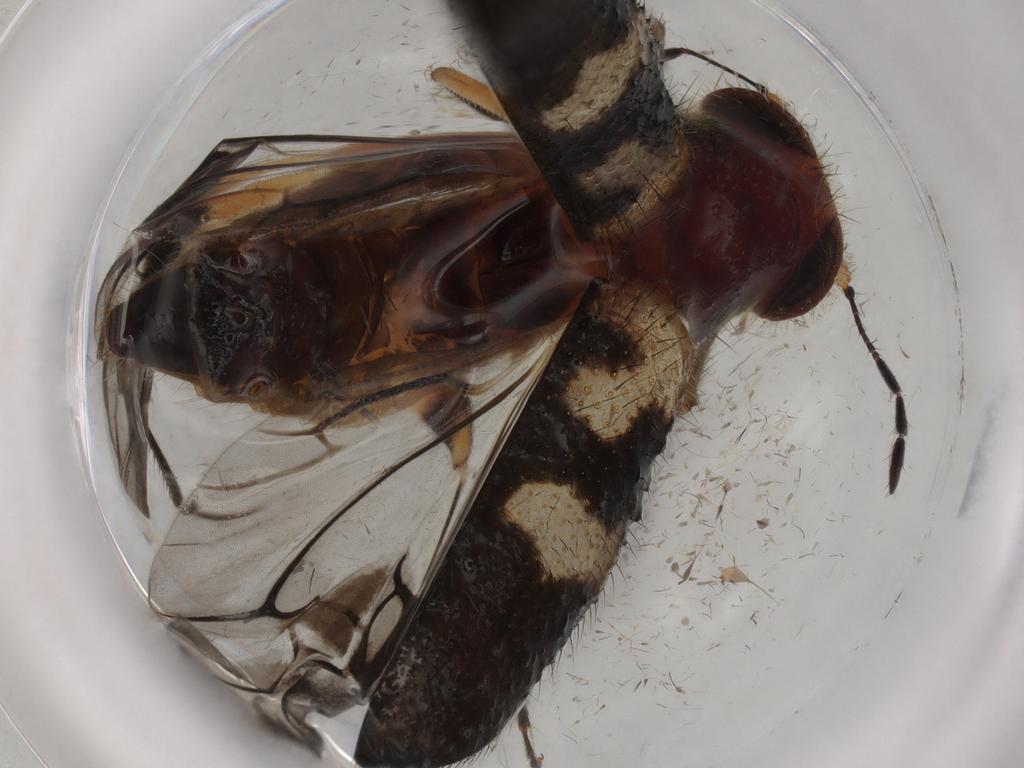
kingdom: Animalia
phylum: Arthropoda
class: Insecta
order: Coleoptera
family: Cleridae
